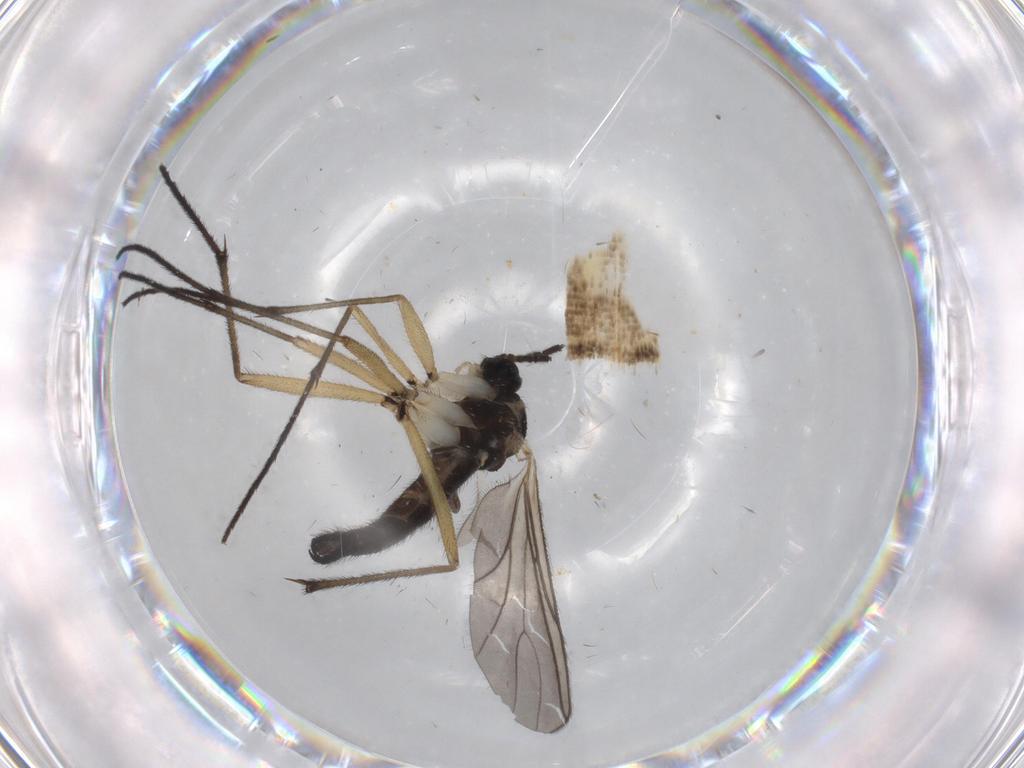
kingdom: Animalia
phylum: Arthropoda
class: Insecta
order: Diptera
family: Sciaridae
